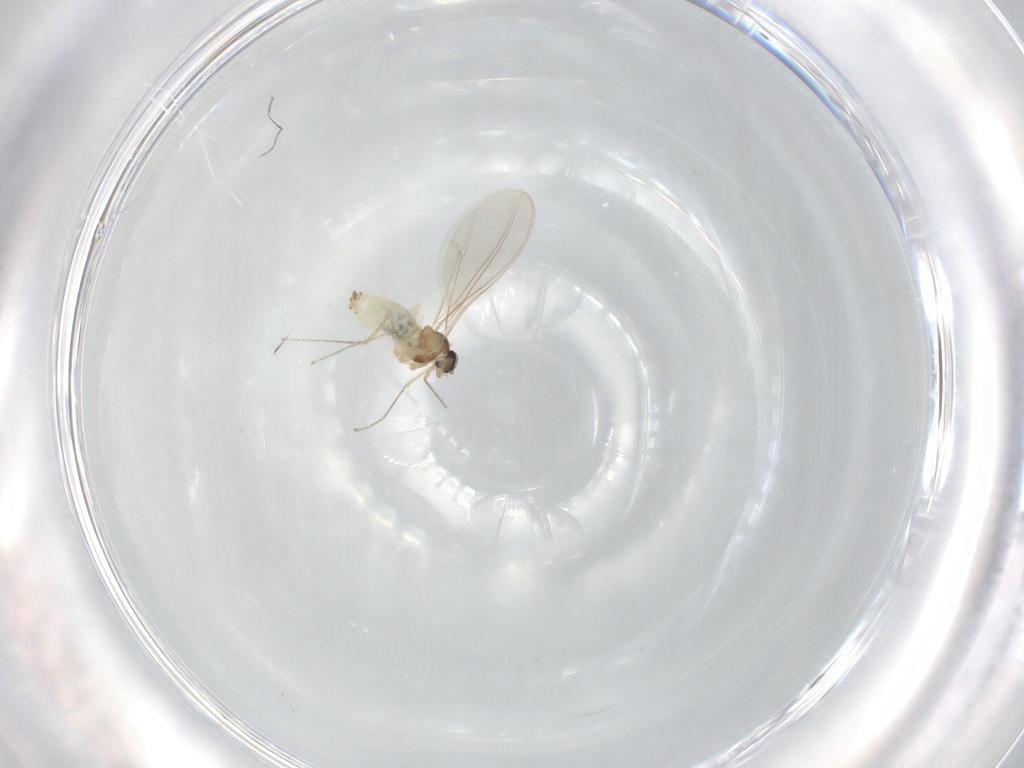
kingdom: Animalia
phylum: Arthropoda
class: Insecta
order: Diptera
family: Cecidomyiidae
